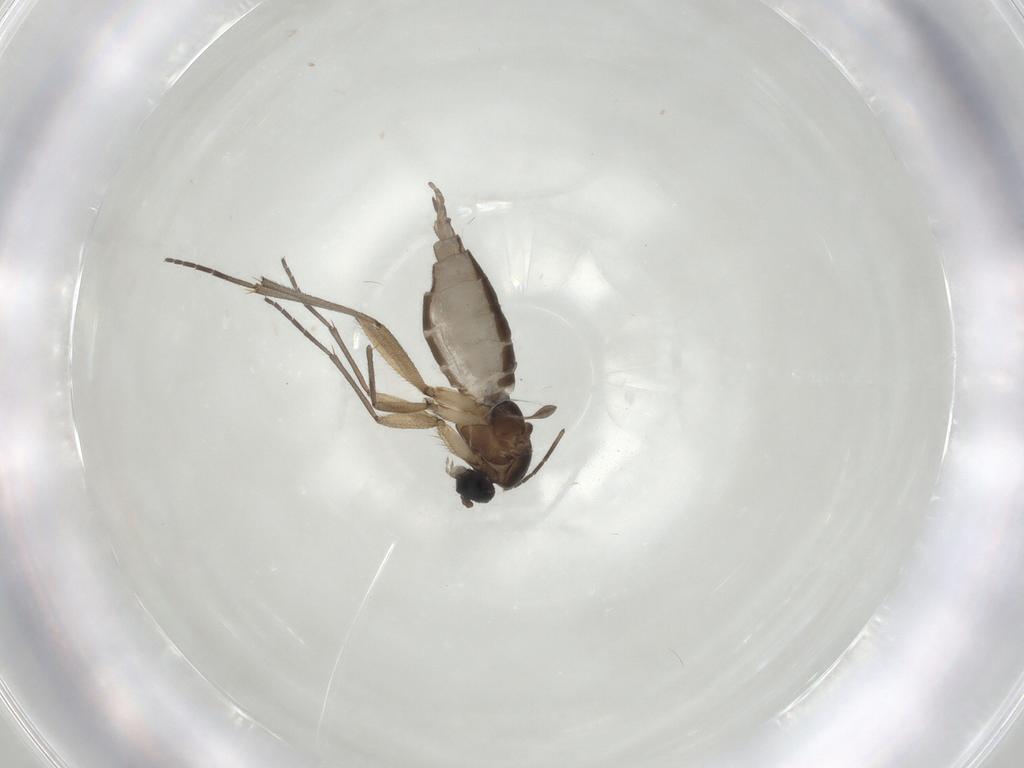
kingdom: Animalia
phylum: Arthropoda
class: Insecta
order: Diptera
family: Sciaridae
